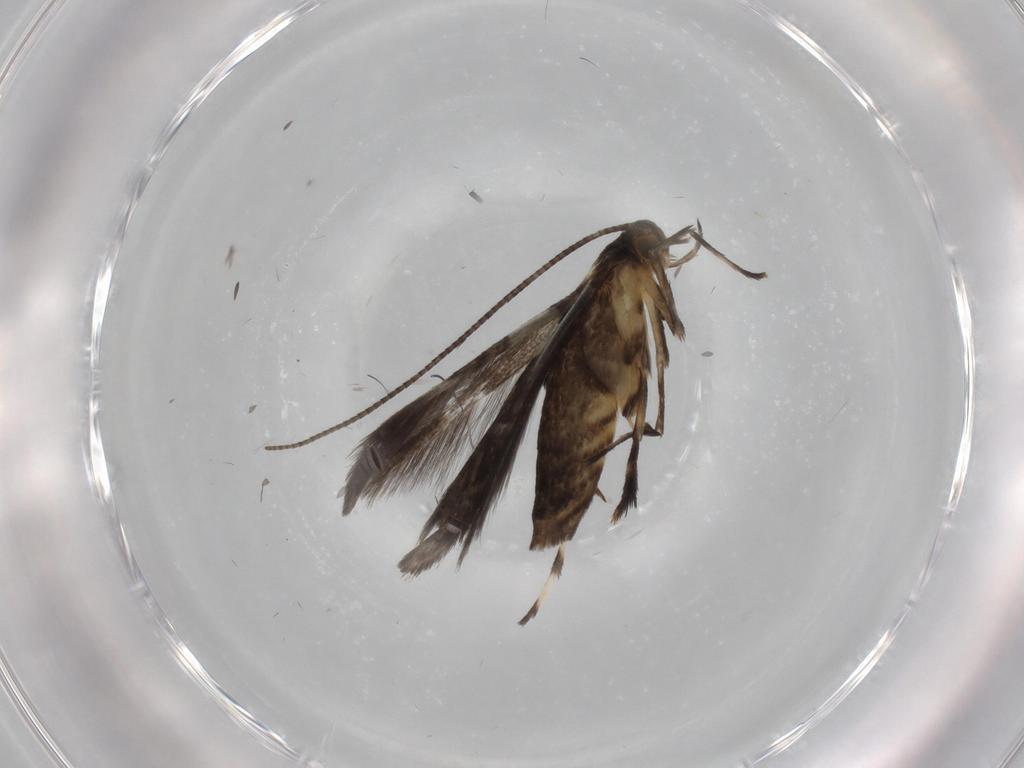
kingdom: Animalia
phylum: Arthropoda
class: Insecta
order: Lepidoptera
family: Gracillariidae
